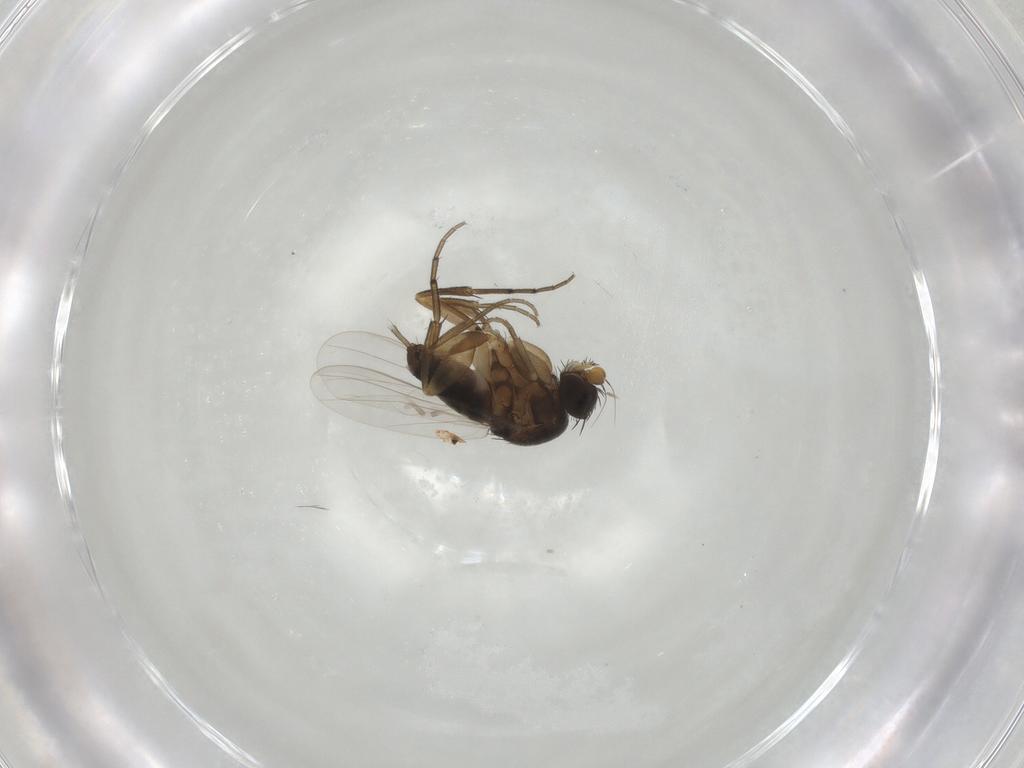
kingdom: Animalia
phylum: Arthropoda
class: Insecta
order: Diptera
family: Phoridae
